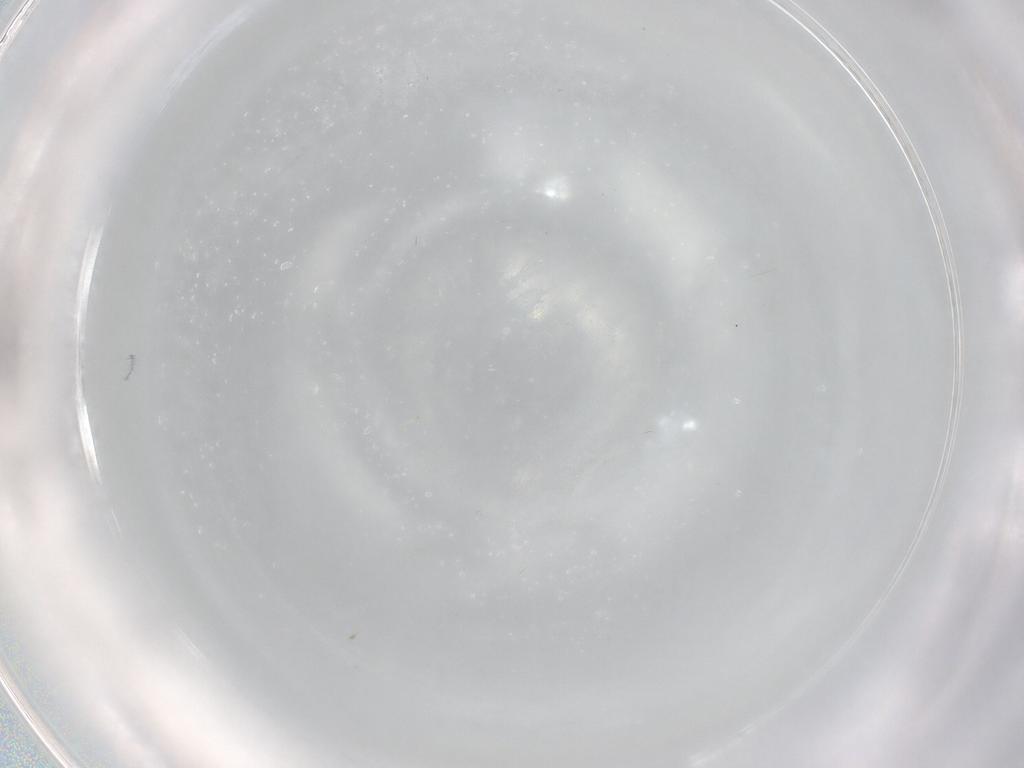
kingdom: Animalia
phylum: Arthropoda
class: Insecta
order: Diptera
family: Cecidomyiidae
